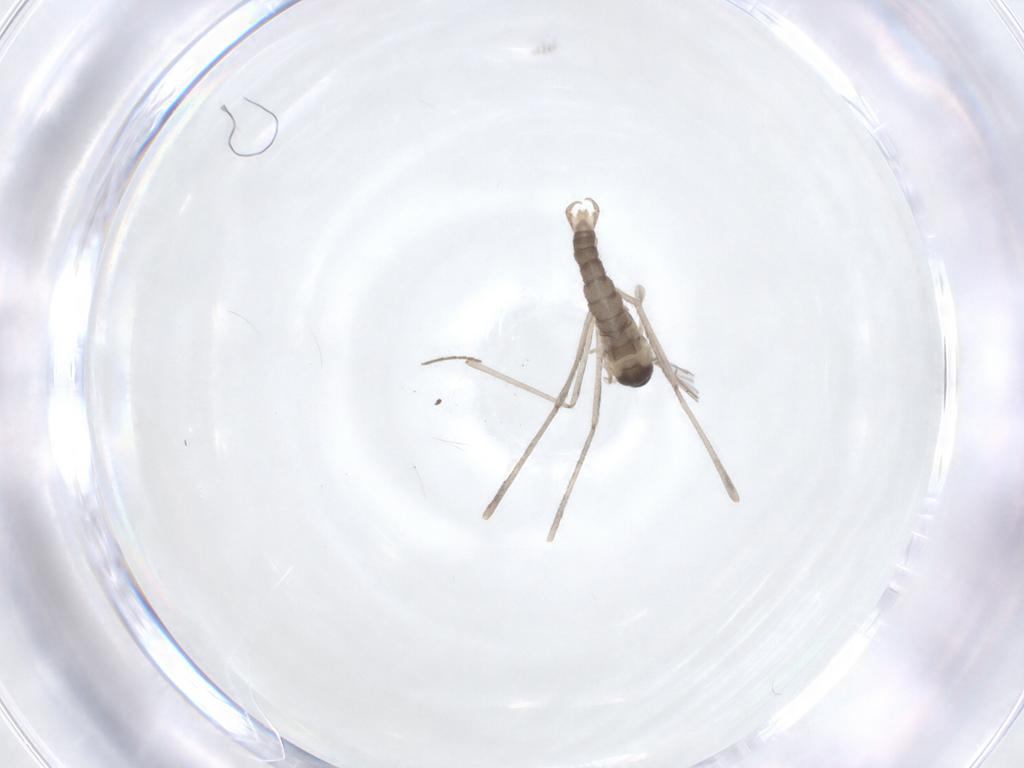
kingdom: Animalia
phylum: Arthropoda
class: Insecta
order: Diptera
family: Cecidomyiidae
